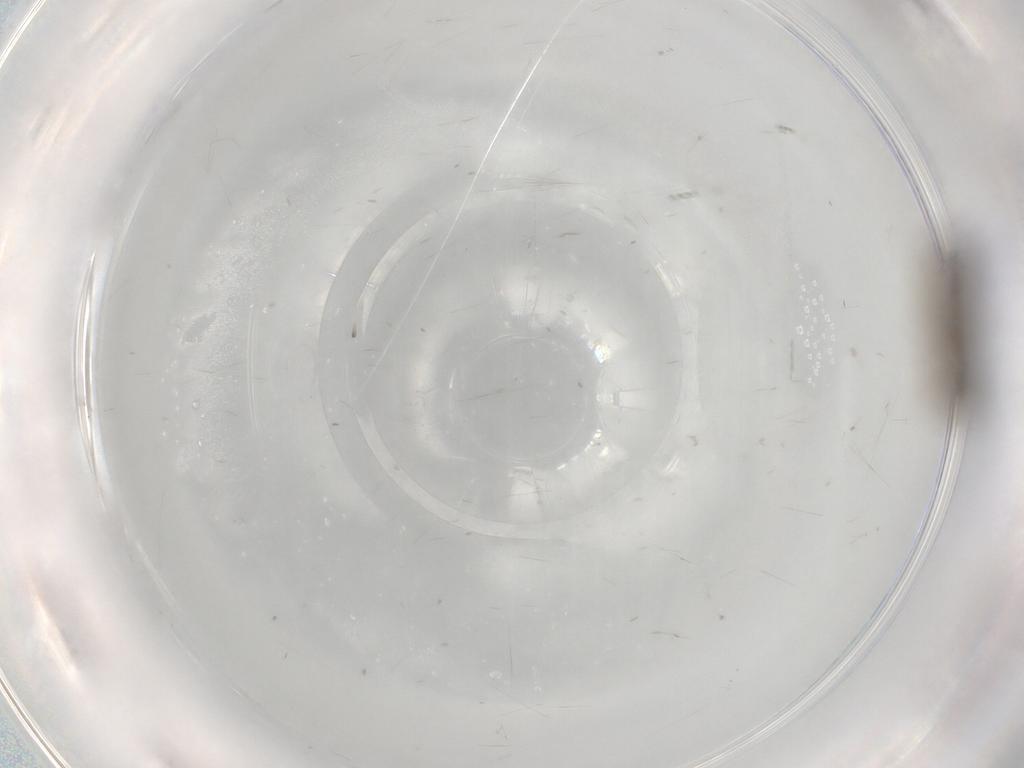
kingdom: Animalia
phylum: Arthropoda
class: Insecta
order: Lepidoptera
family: Nepticulidae
